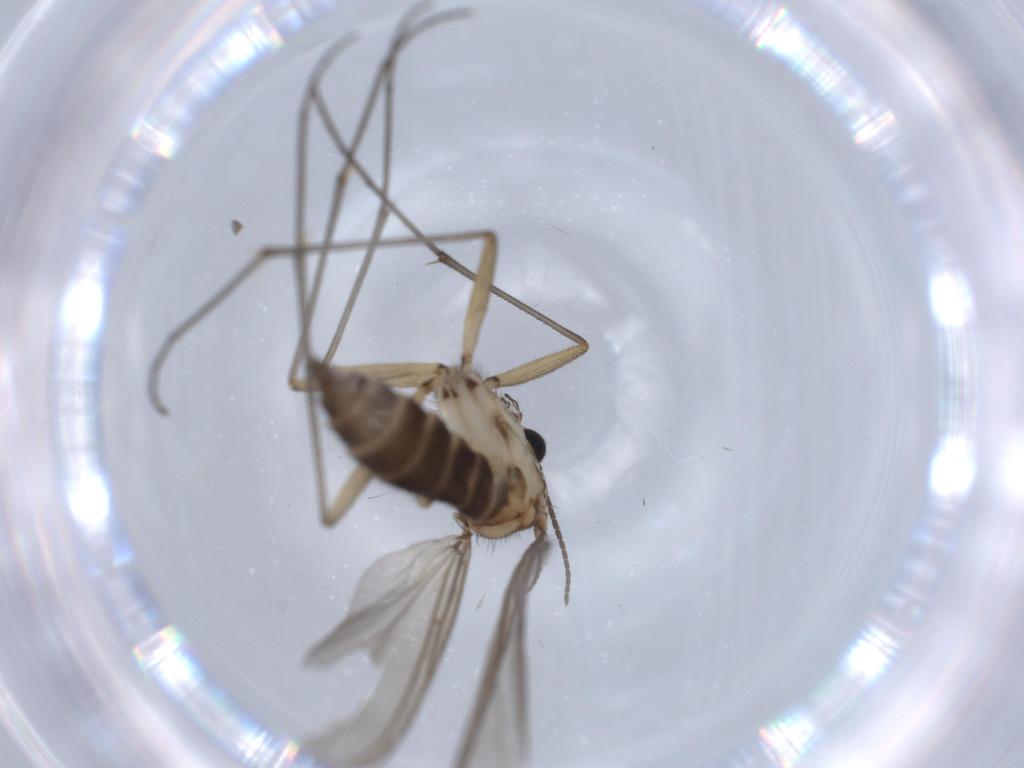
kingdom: Animalia
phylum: Arthropoda
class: Insecta
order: Diptera
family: Sciaridae
